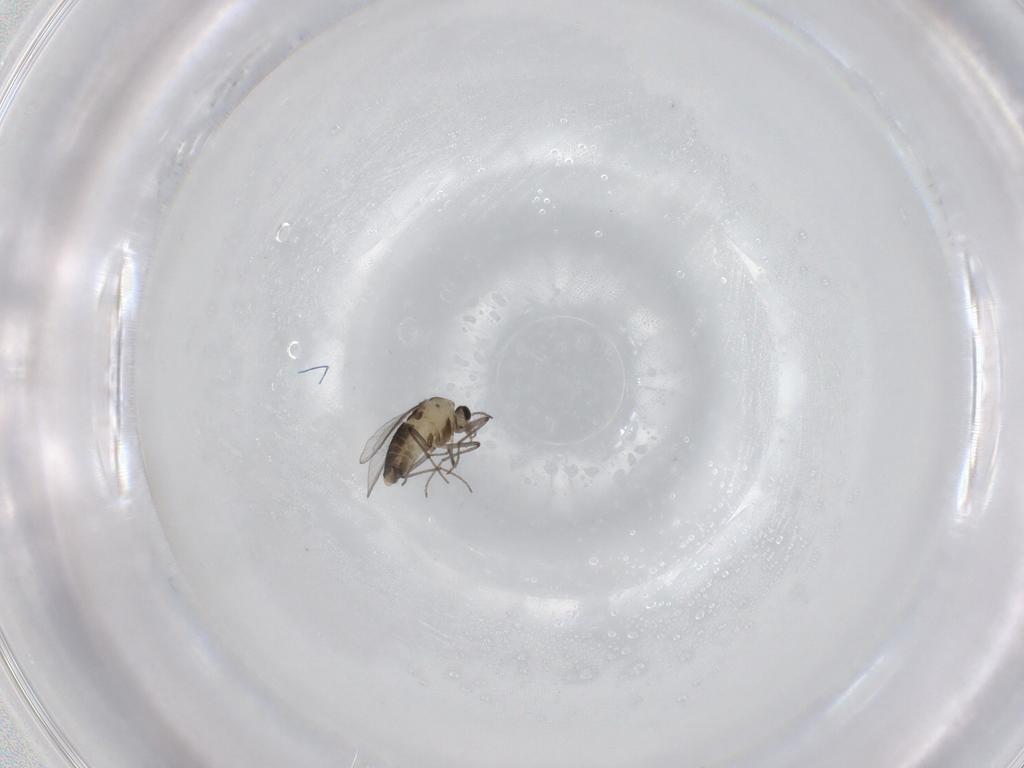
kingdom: Animalia
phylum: Arthropoda
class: Insecta
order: Diptera
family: Chironomidae
